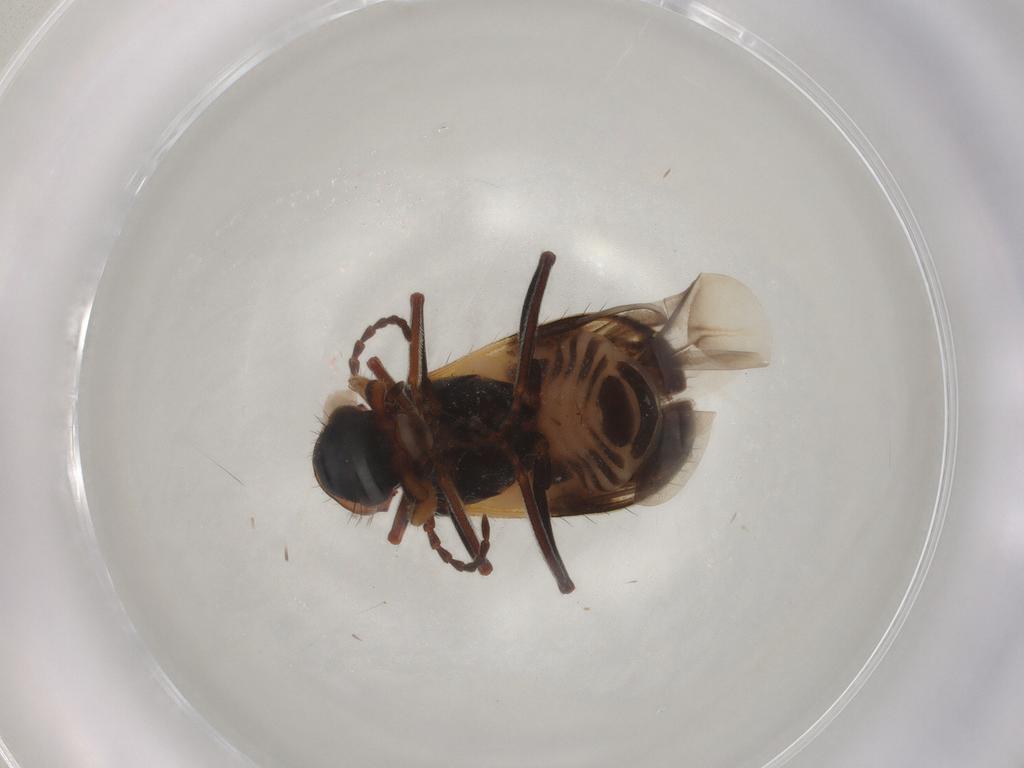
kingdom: Animalia
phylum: Arthropoda
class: Insecta
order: Coleoptera
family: Melyridae
